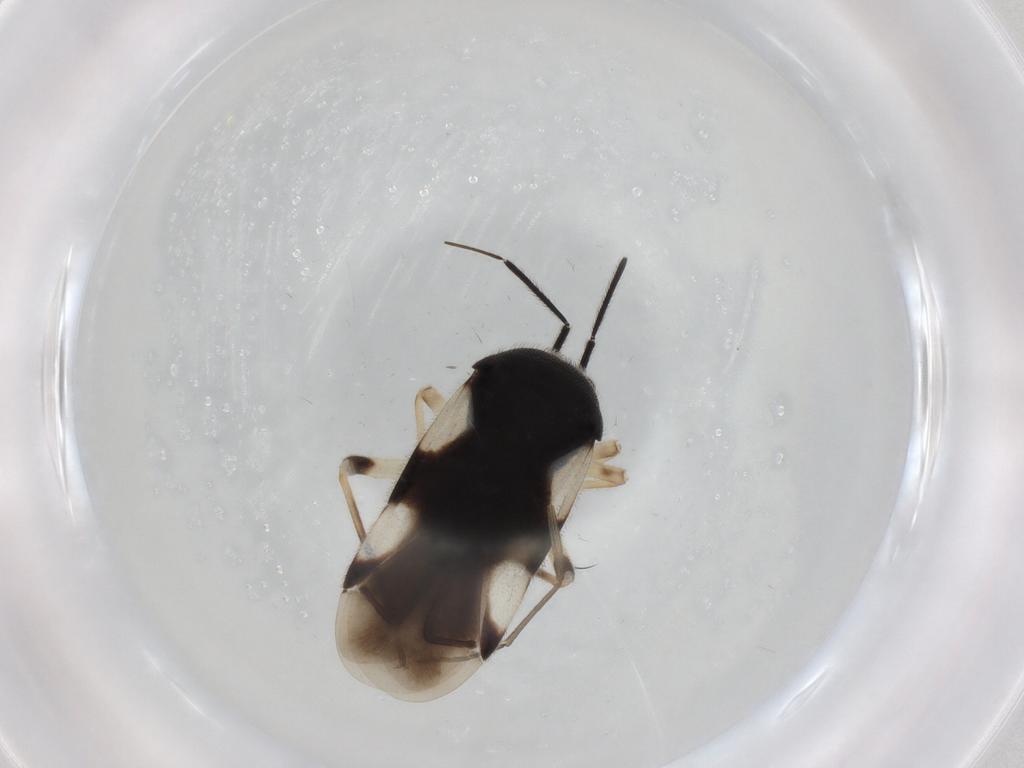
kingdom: Animalia
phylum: Arthropoda
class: Insecta
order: Hemiptera
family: Miridae
